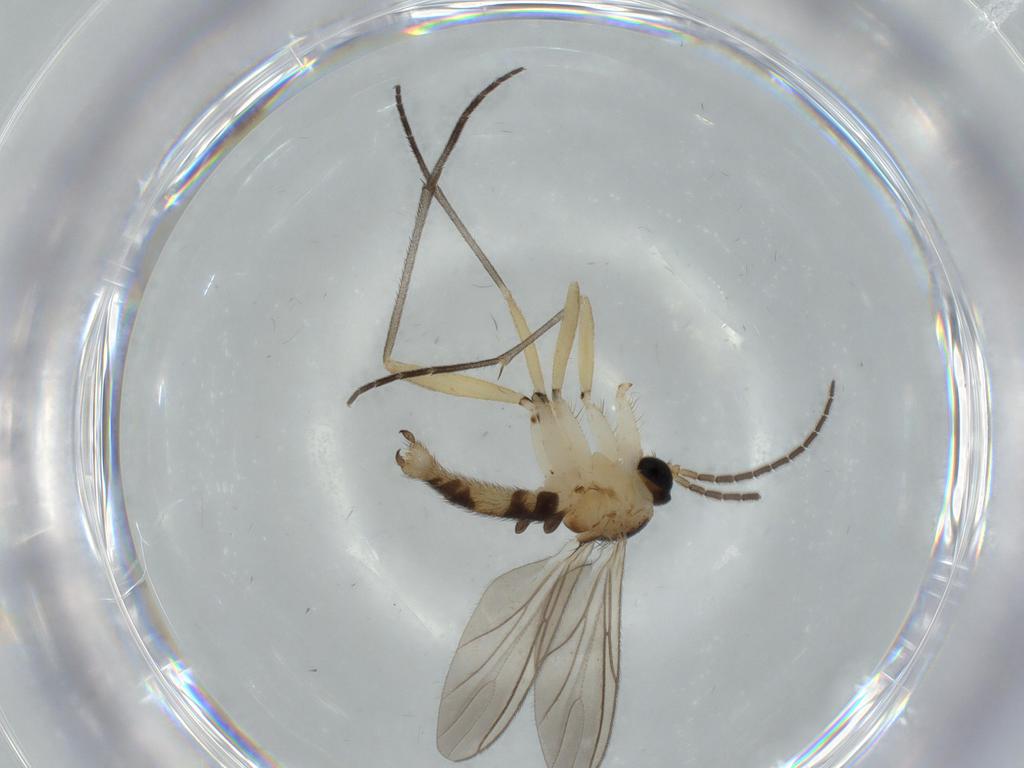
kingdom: Animalia
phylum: Arthropoda
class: Insecta
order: Diptera
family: Sciaridae
